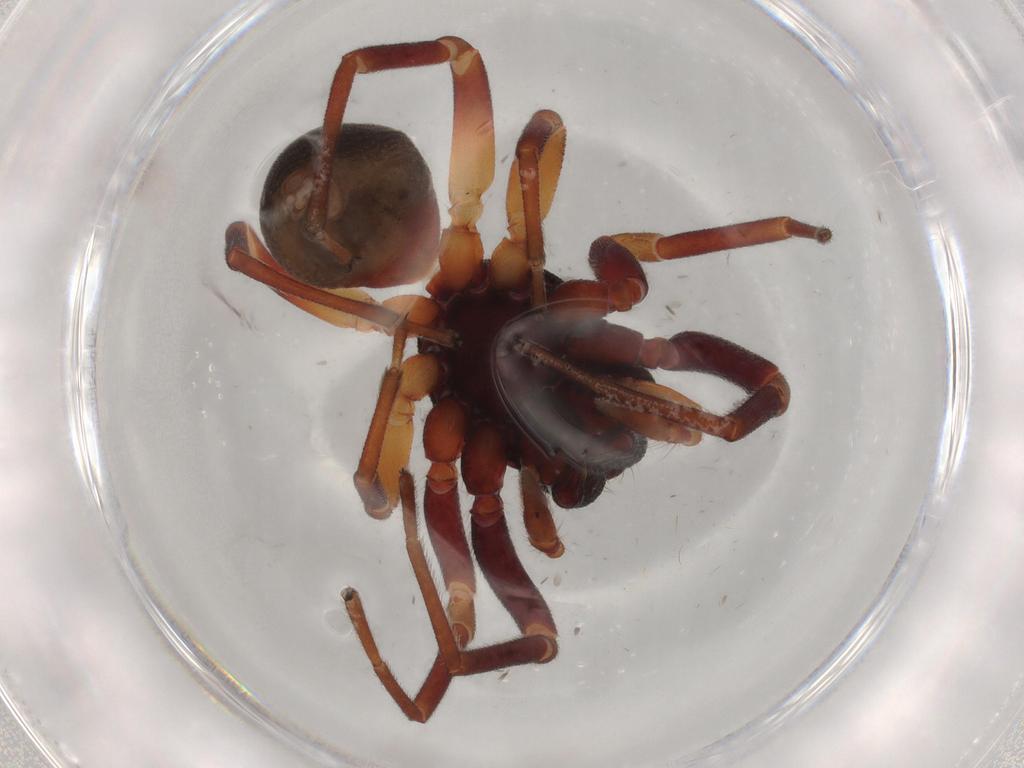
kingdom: Animalia
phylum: Arthropoda
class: Arachnida
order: Araneae
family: Trachelidae
